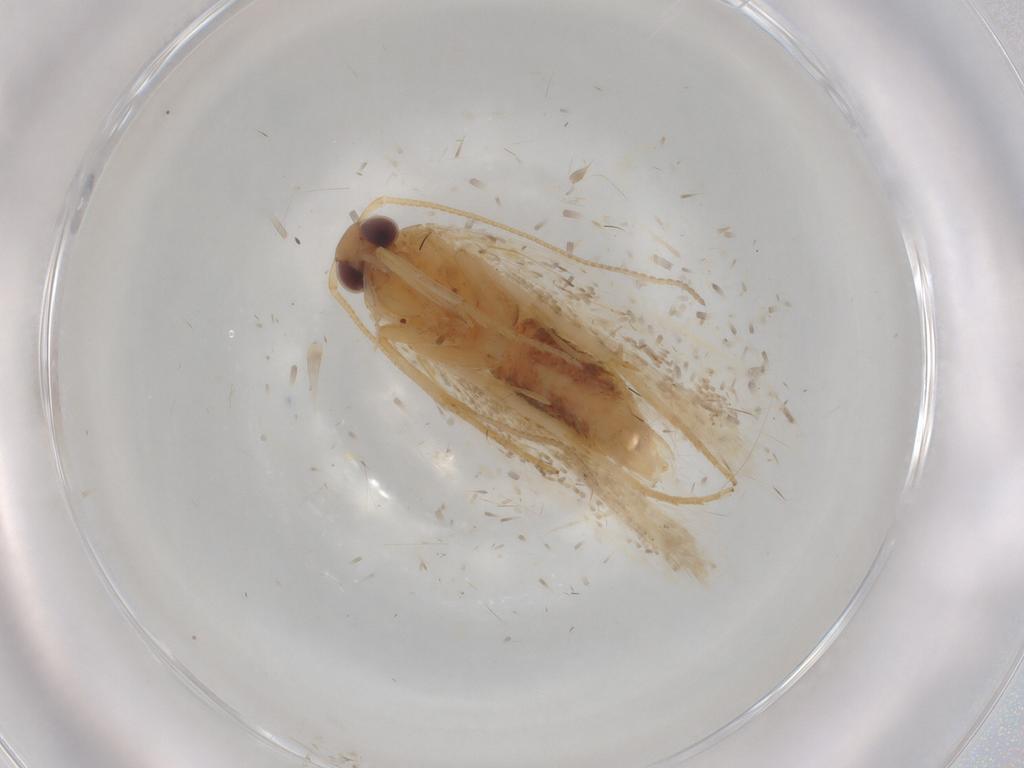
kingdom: Animalia
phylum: Arthropoda
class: Insecta
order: Lepidoptera
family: Gelechiidae
